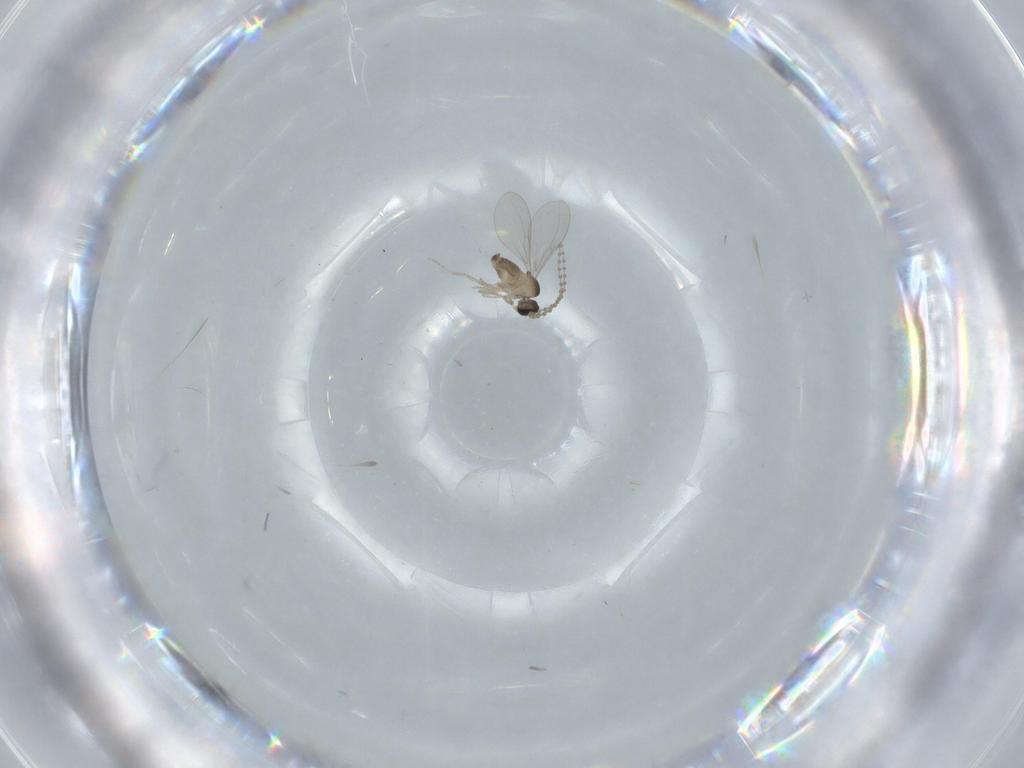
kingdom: Animalia
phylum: Arthropoda
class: Insecta
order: Diptera
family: Cecidomyiidae
